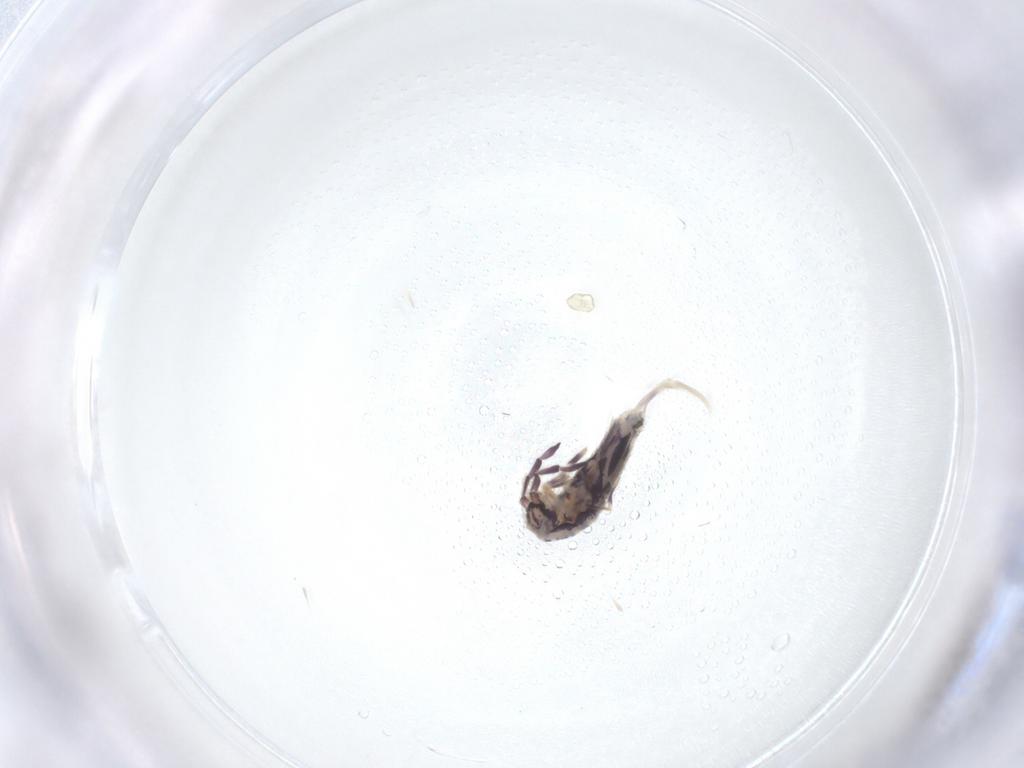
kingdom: Animalia
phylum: Arthropoda
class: Collembola
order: Entomobryomorpha
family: Entomobryidae
